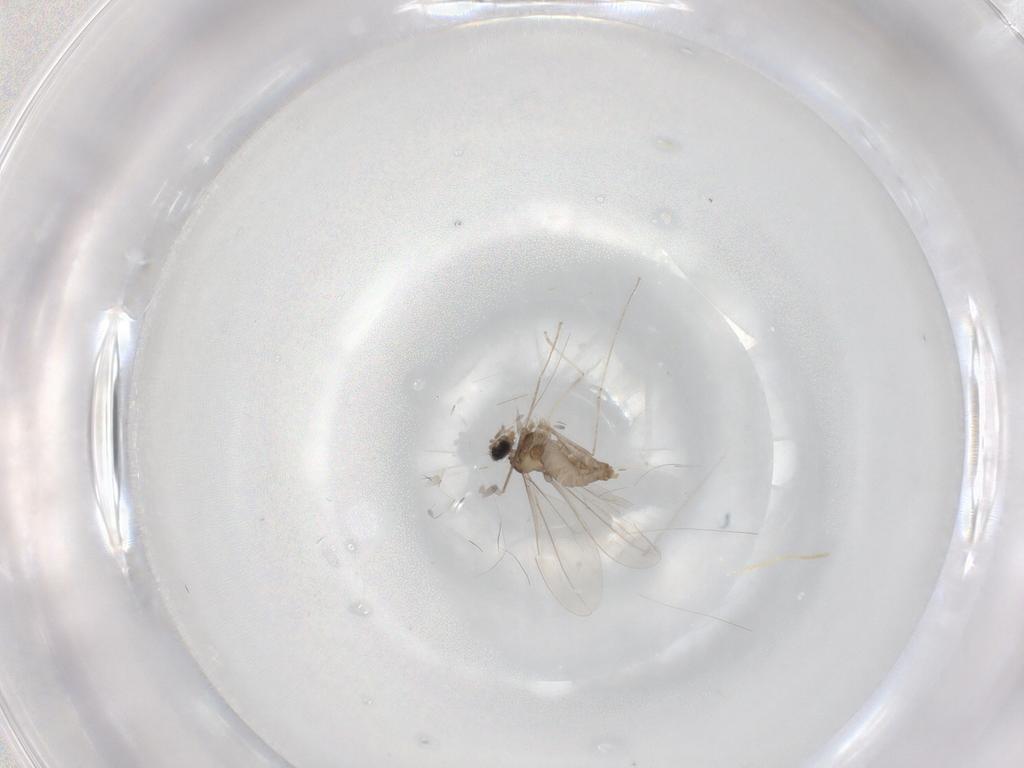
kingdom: Animalia
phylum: Arthropoda
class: Insecta
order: Diptera
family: Cecidomyiidae
